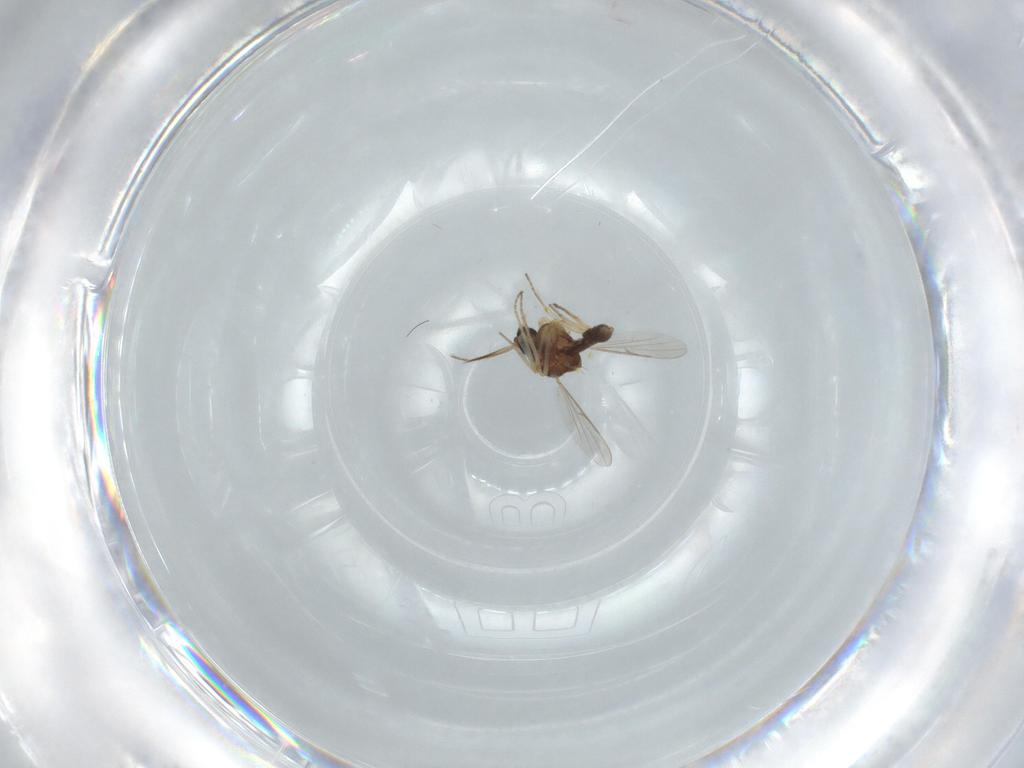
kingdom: Animalia
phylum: Arthropoda
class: Insecta
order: Diptera
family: Ceratopogonidae
